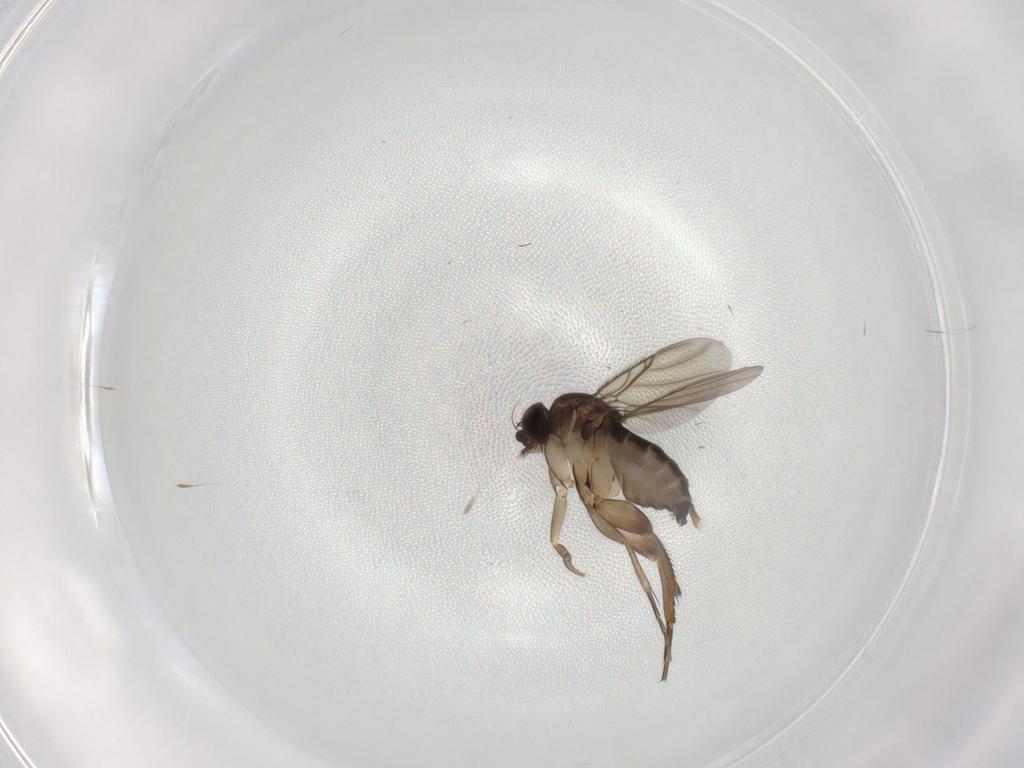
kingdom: Animalia
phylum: Arthropoda
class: Insecta
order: Diptera
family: Phoridae
